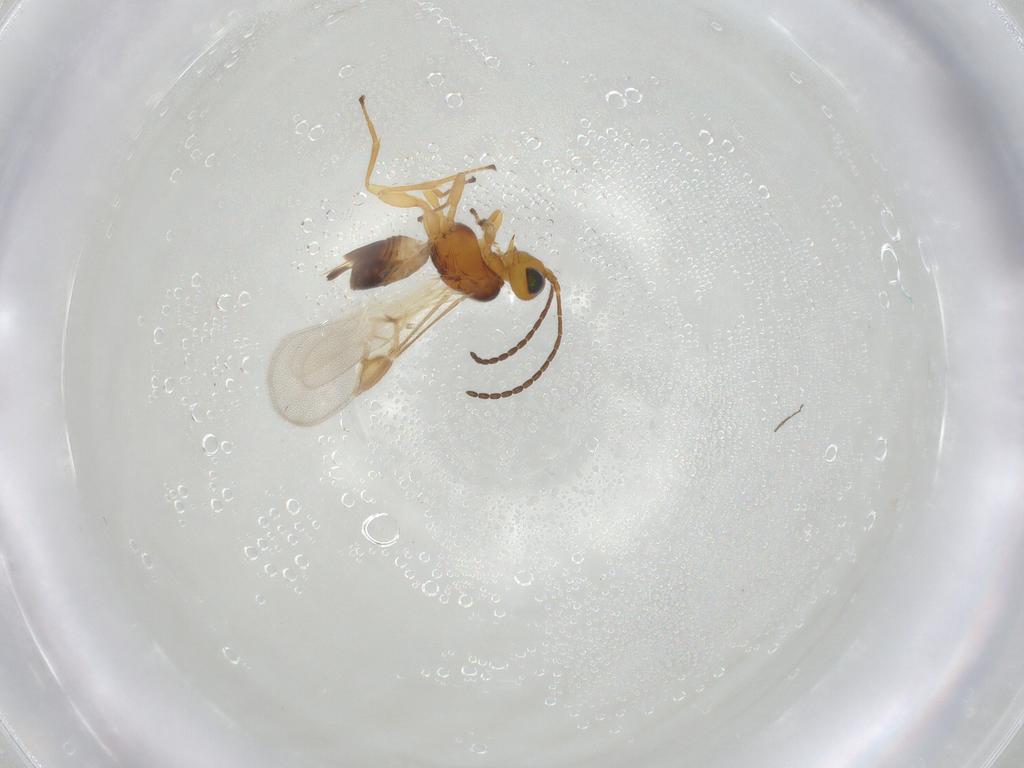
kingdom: Animalia
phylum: Arthropoda
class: Insecta
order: Hymenoptera
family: Braconidae
